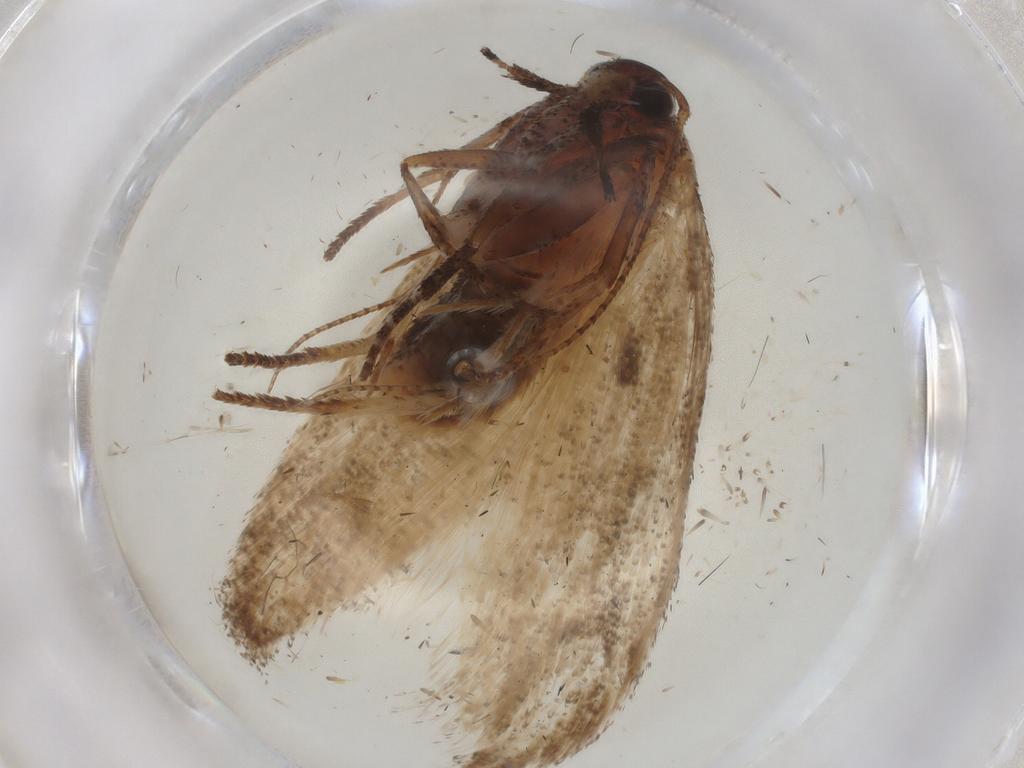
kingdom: Animalia
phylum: Arthropoda
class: Insecta
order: Lepidoptera
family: Cosmopterigidae
